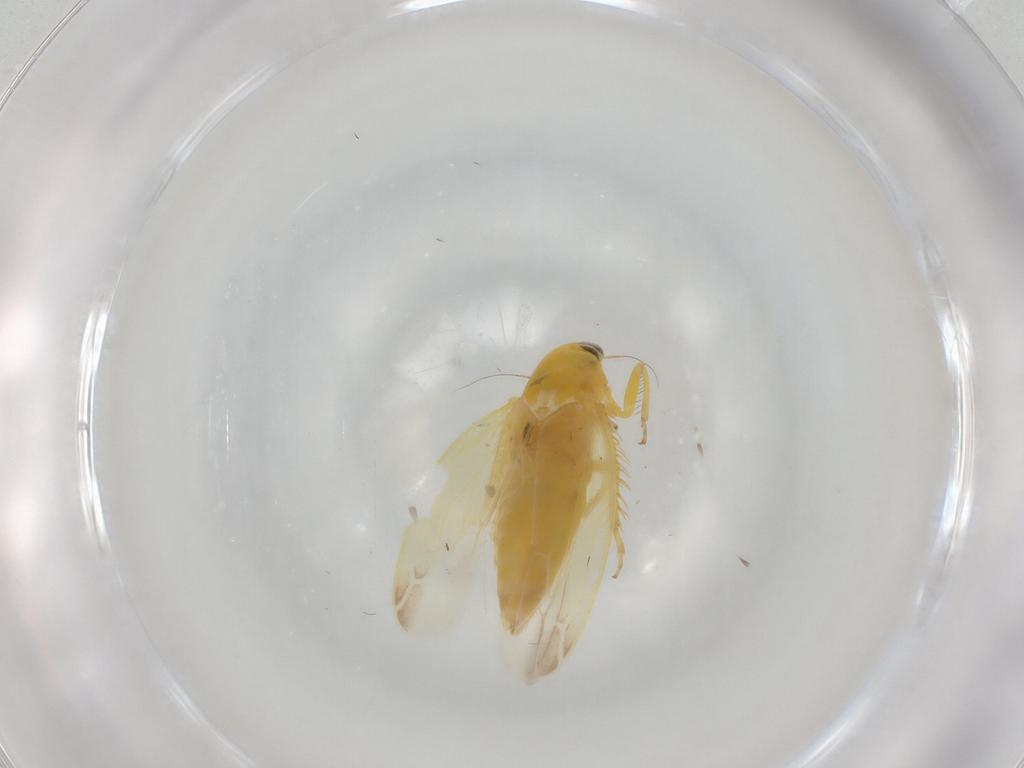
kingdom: Animalia
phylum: Arthropoda
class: Insecta
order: Hemiptera
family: Cicadellidae
